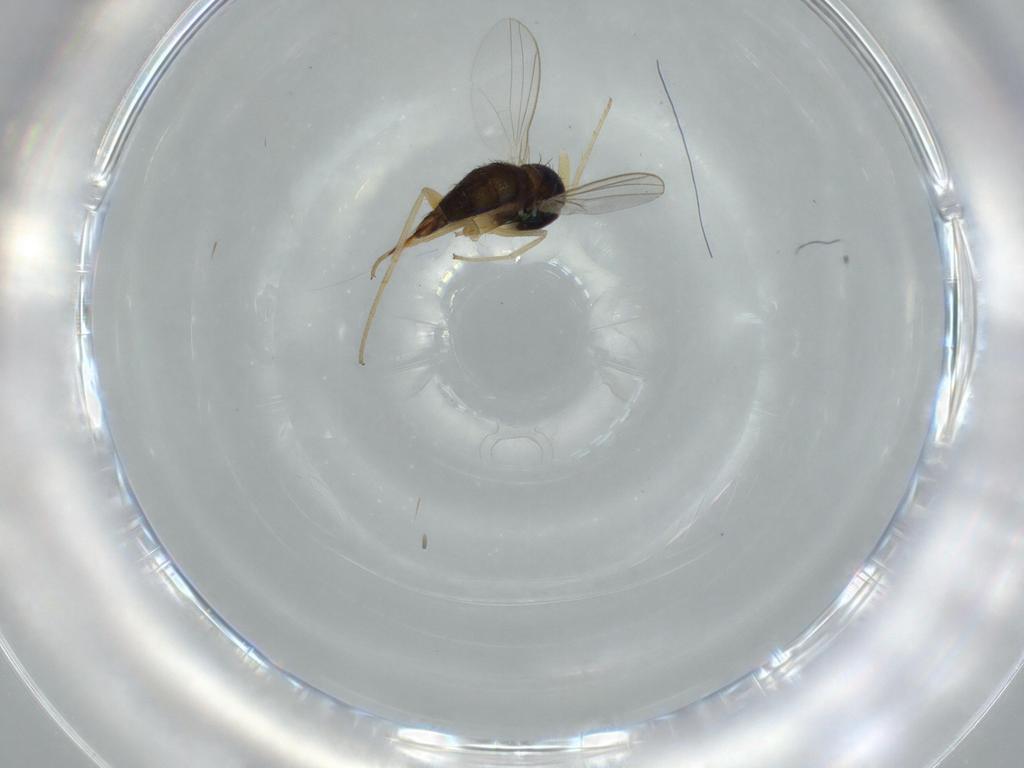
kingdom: Animalia
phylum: Arthropoda
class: Insecta
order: Diptera
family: Dolichopodidae
